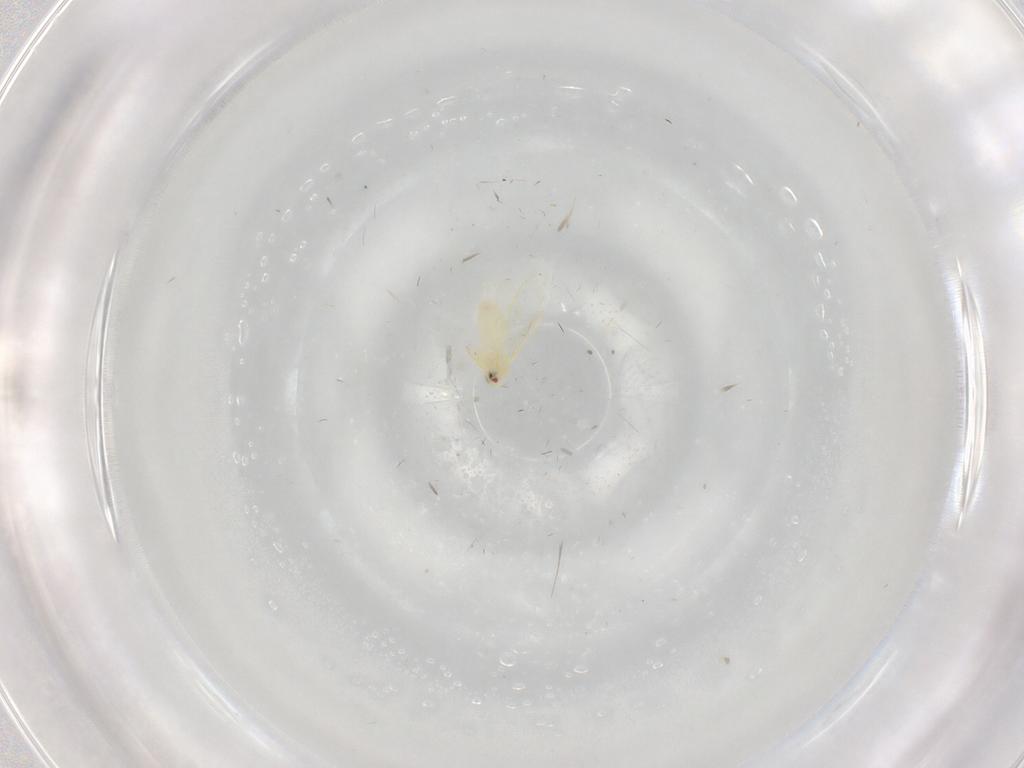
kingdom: Animalia
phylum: Arthropoda
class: Insecta
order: Hemiptera
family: Aleyrodidae
